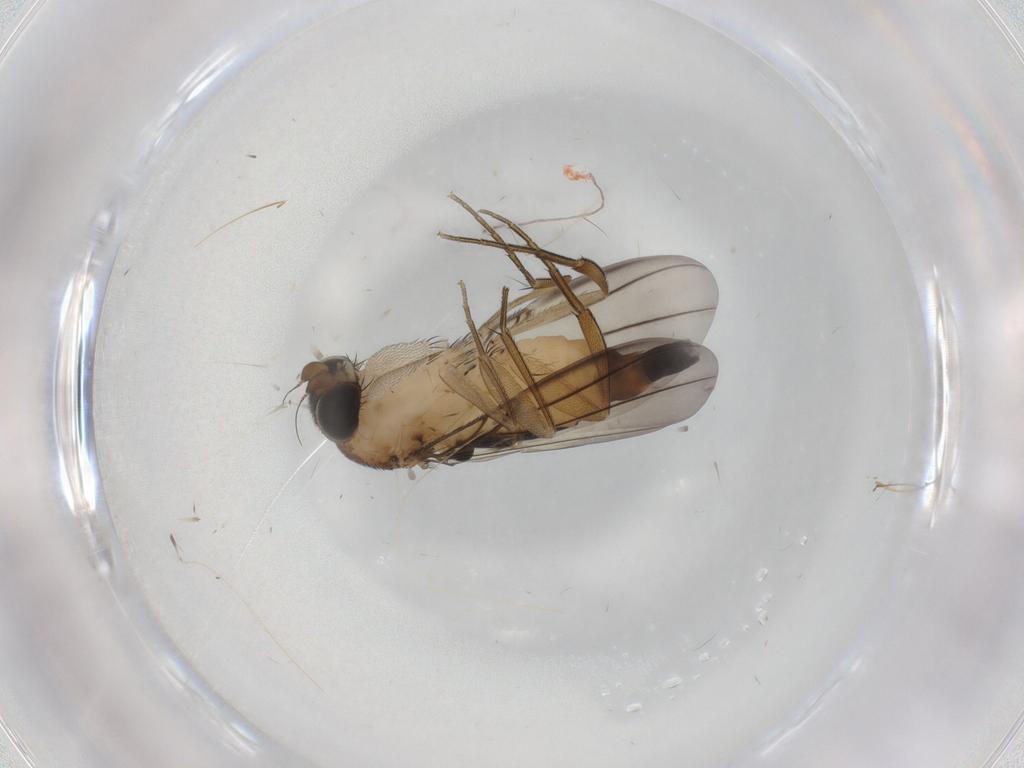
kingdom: Animalia
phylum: Arthropoda
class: Insecta
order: Diptera
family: Phoridae
